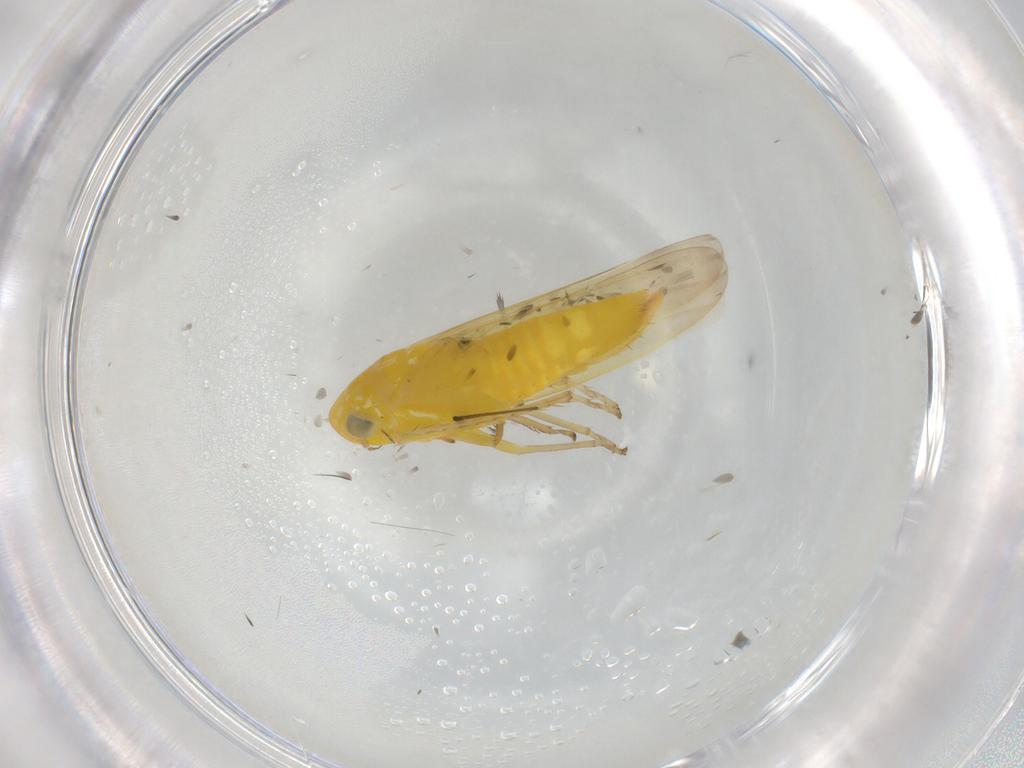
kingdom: Animalia
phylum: Arthropoda
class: Insecta
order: Hemiptera
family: Cicadellidae
